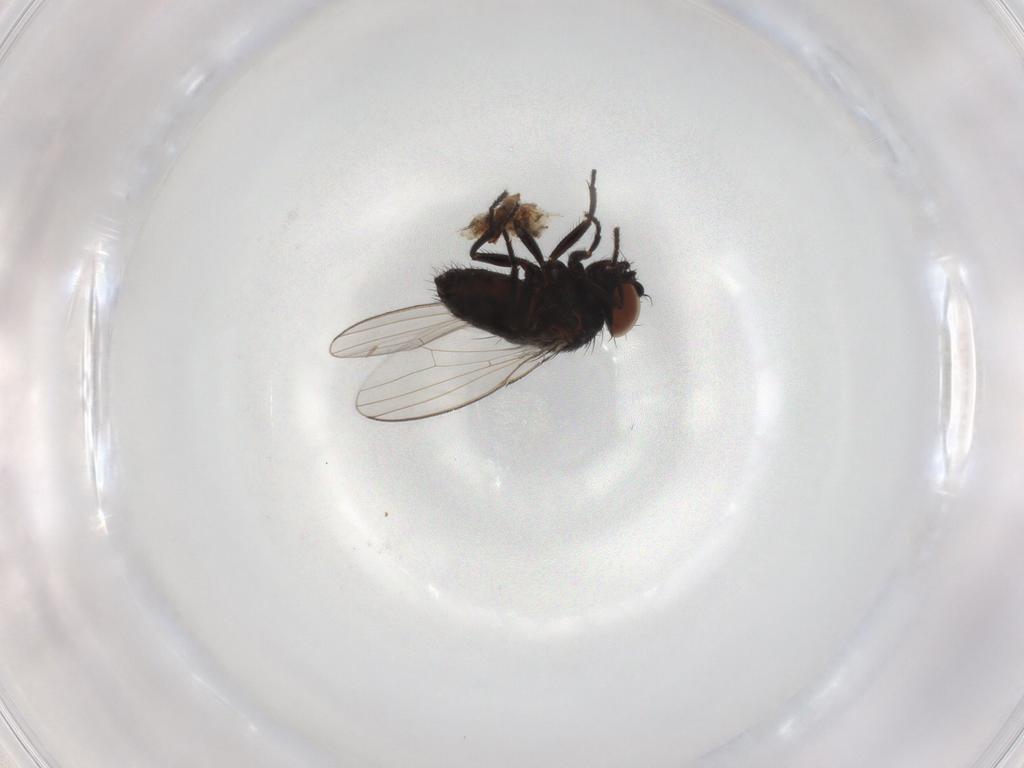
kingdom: Animalia
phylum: Arthropoda
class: Insecta
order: Diptera
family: Milichiidae
